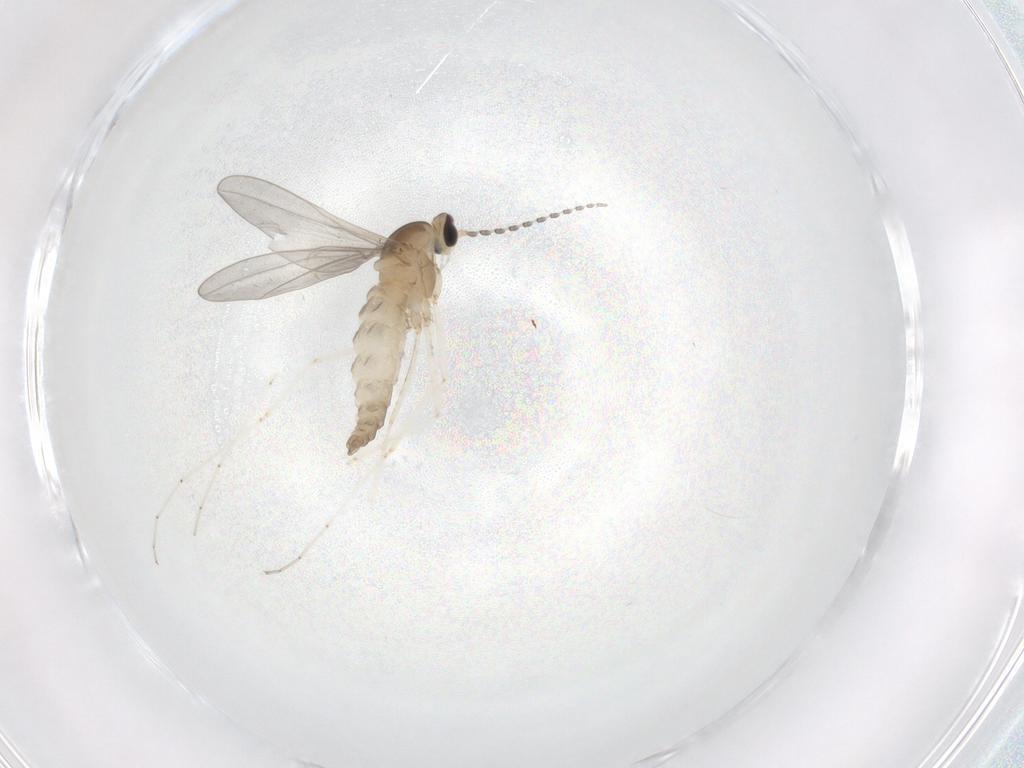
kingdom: Animalia
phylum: Arthropoda
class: Insecta
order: Diptera
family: Cecidomyiidae
